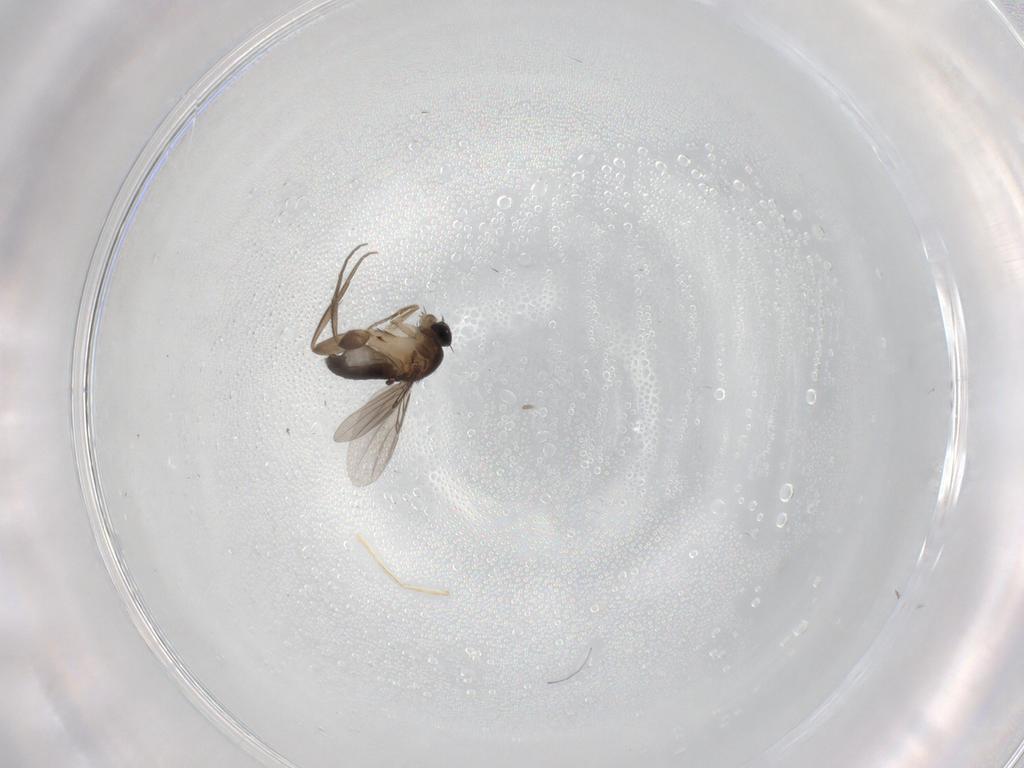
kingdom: Animalia
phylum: Arthropoda
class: Insecta
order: Diptera
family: Phoridae
